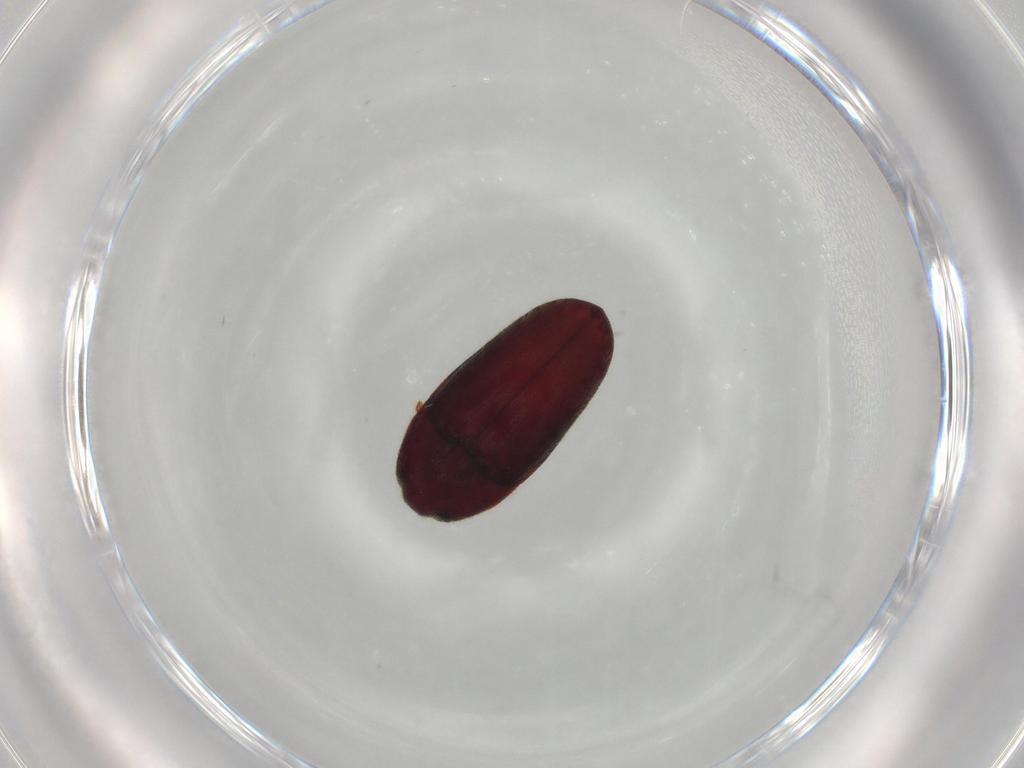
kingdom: Animalia
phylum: Arthropoda
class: Insecta
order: Coleoptera
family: Throscidae
